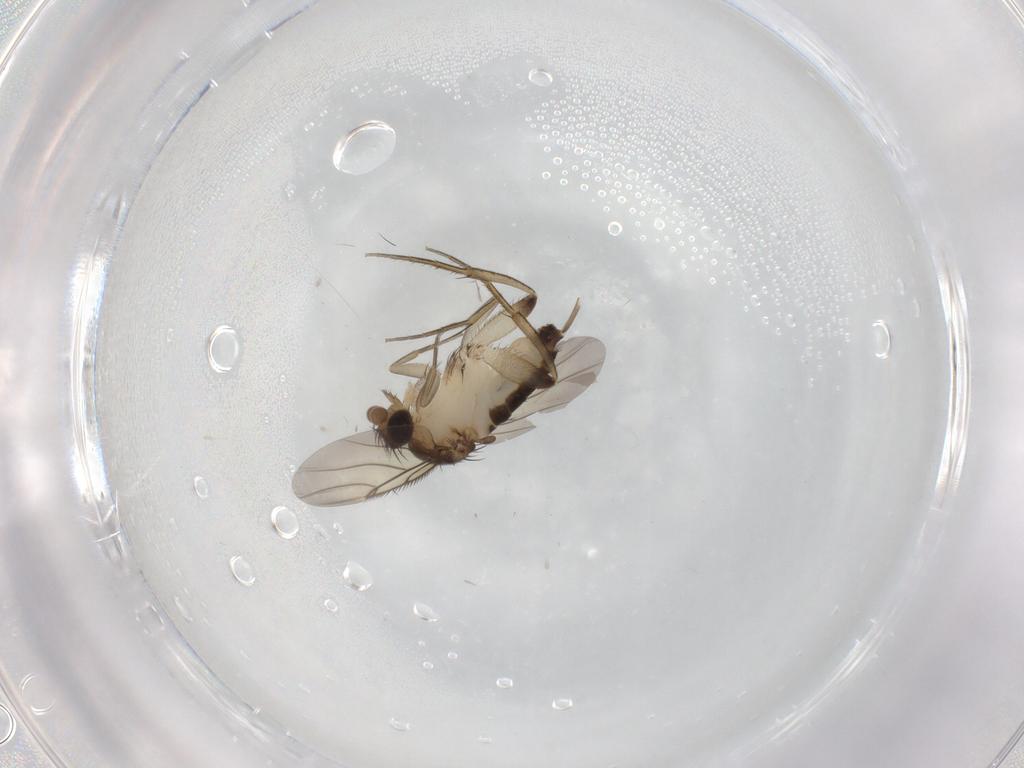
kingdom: Animalia
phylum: Arthropoda
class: Insecta
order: Diptera
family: Phoridae
